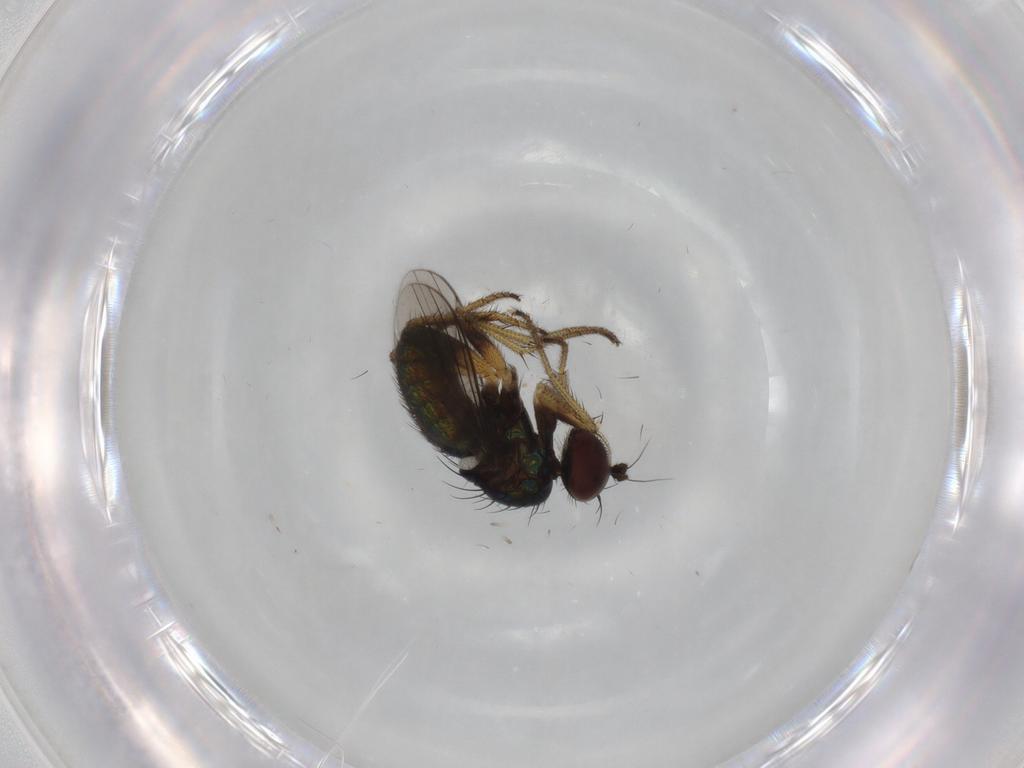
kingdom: Animalia
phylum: Arthropoda
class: Insecta
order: Diptera
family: Dolichopodidae
